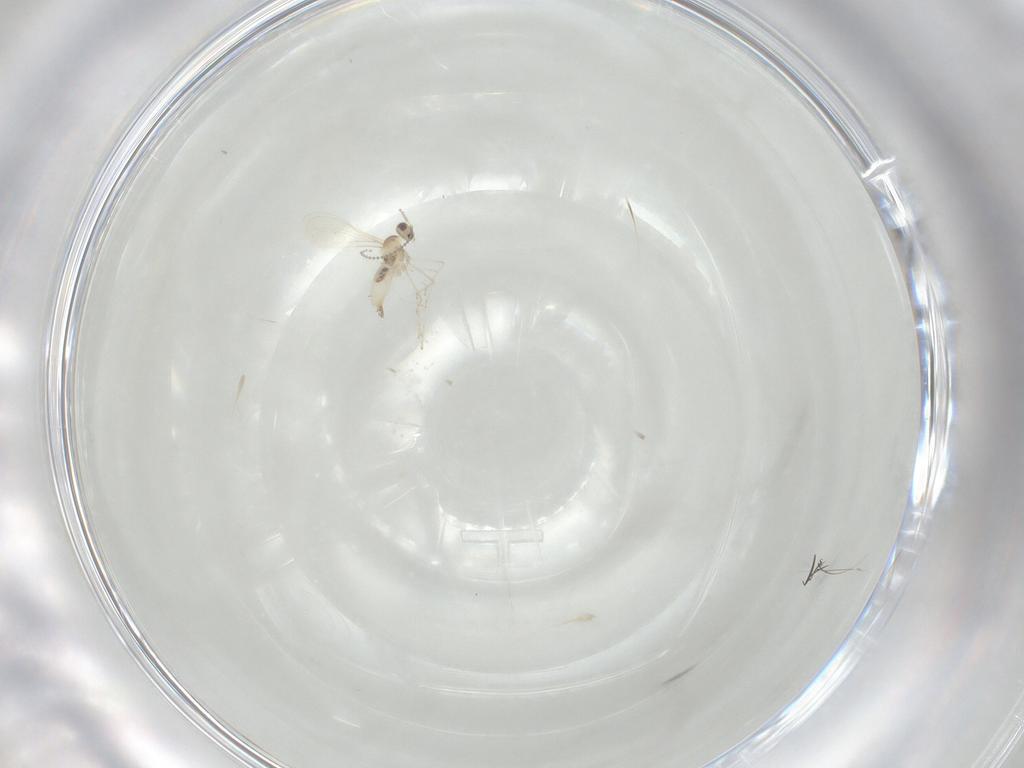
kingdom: Animalia
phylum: Arthropoda
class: Insecta
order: Diptera
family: Cecidomyiidae
